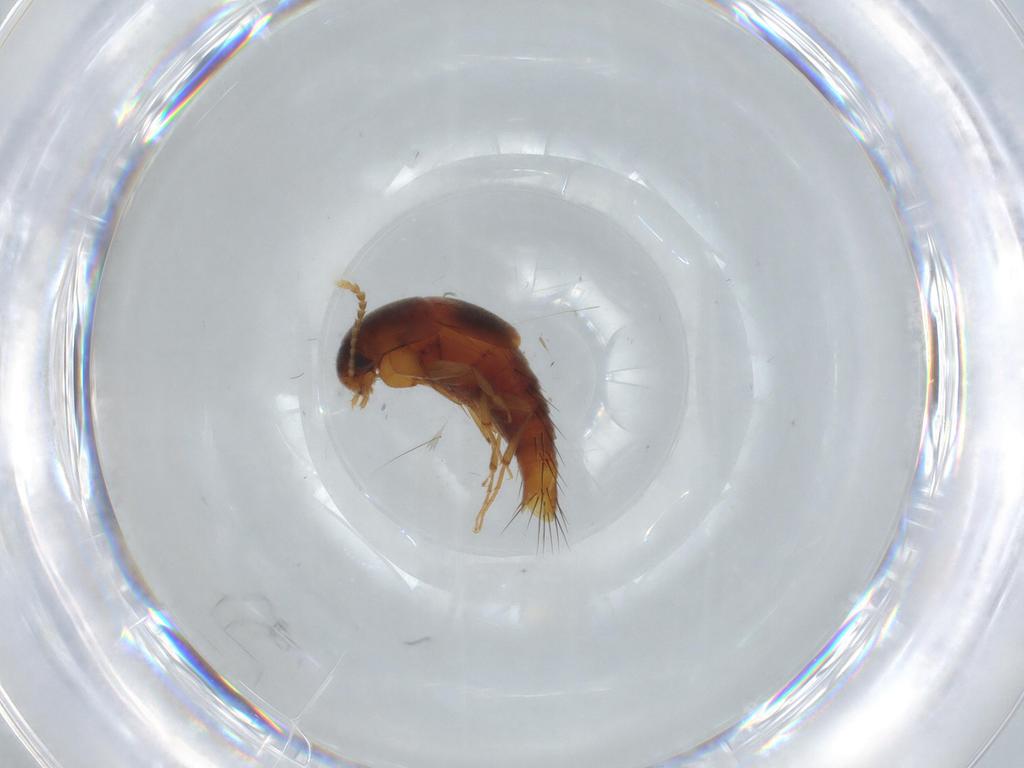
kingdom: Animalia
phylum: Arthropoda
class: Insecta
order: Coleoptera
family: Staphylinidae
